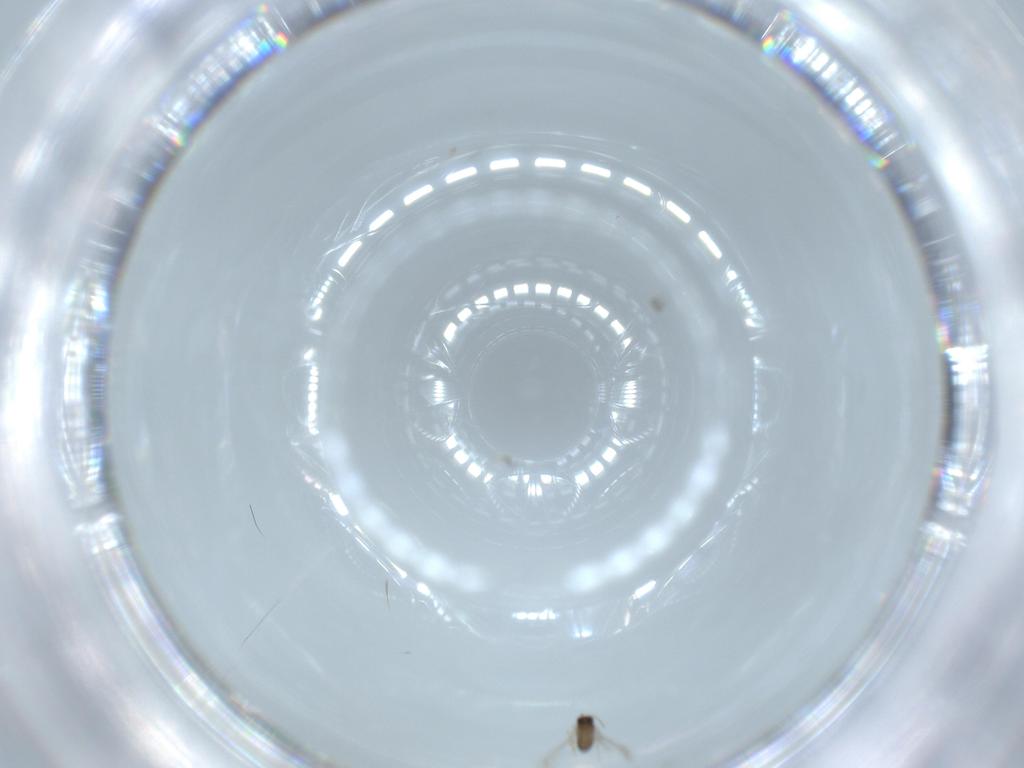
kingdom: Animalia
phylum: Arthropoda
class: Insecta
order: Hymenoptera
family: Mymaridae
